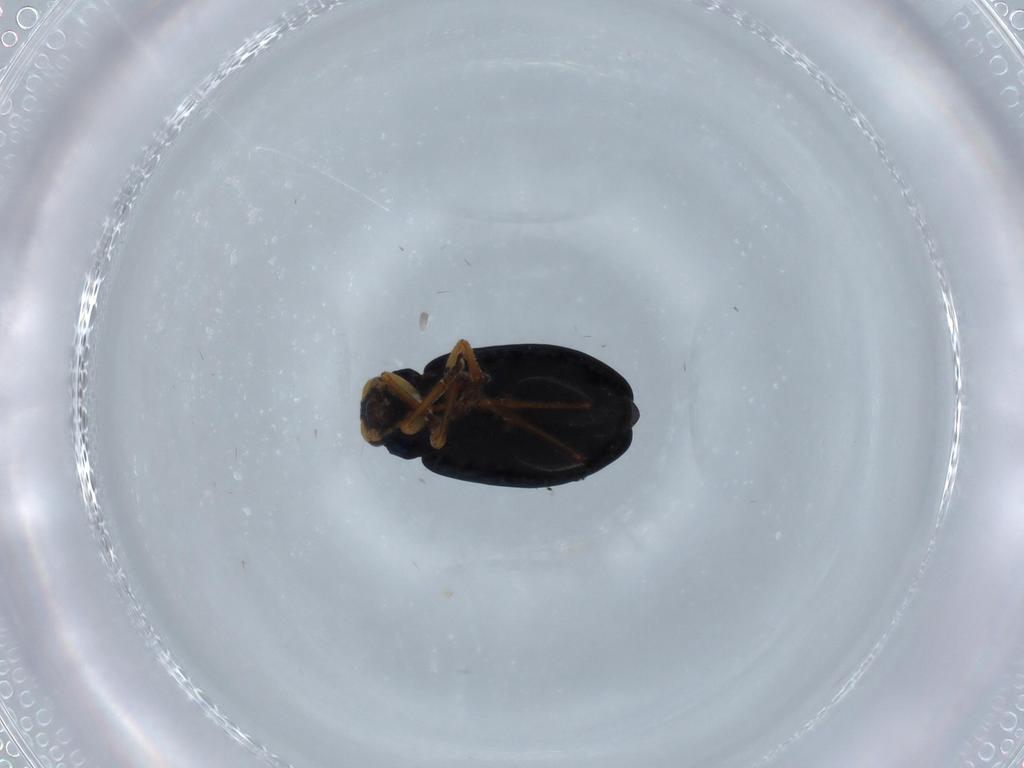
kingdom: Animalia
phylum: Arthropoda
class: Insecta
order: Coleoptera
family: Chrysomelidae
